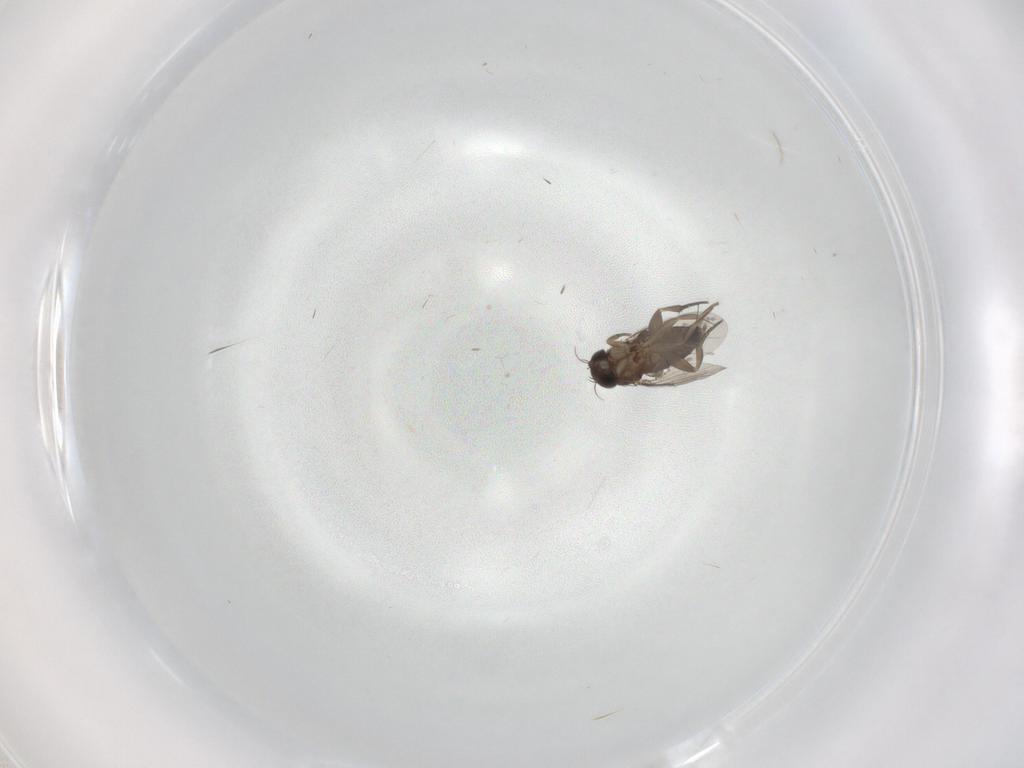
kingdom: Animalia
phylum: Arthropoda
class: Insecta
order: Diptera
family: Phoridae
